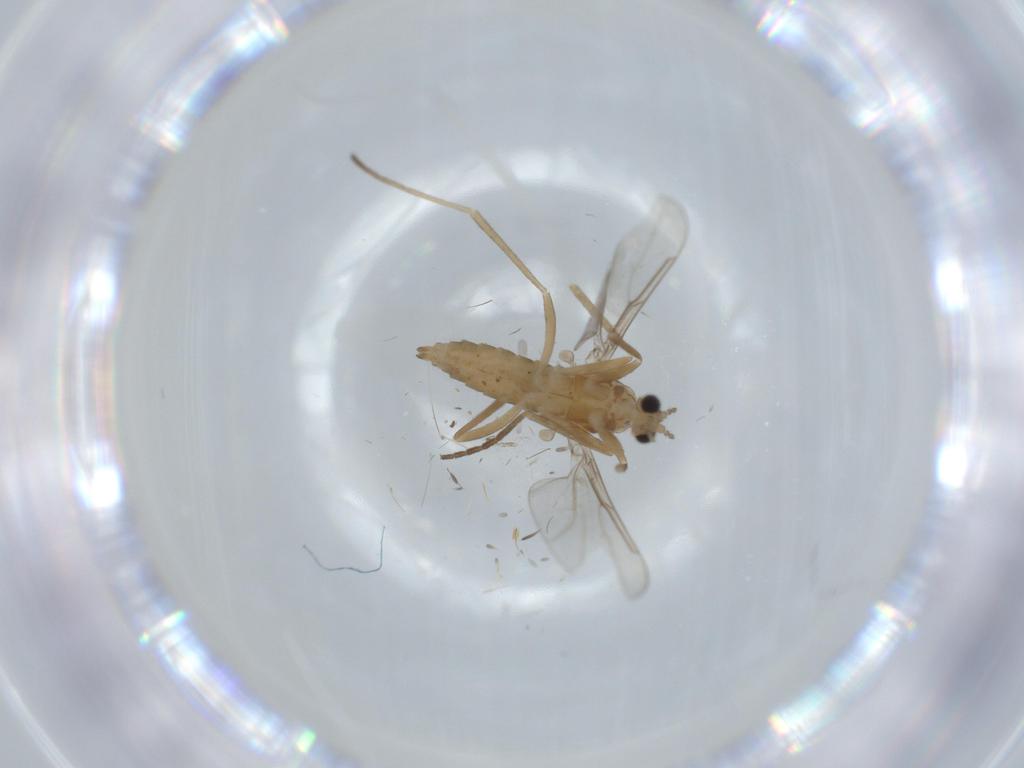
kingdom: Animalia
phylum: Arthropoda
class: Insecta
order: Diptera
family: Cecidomyiidae
